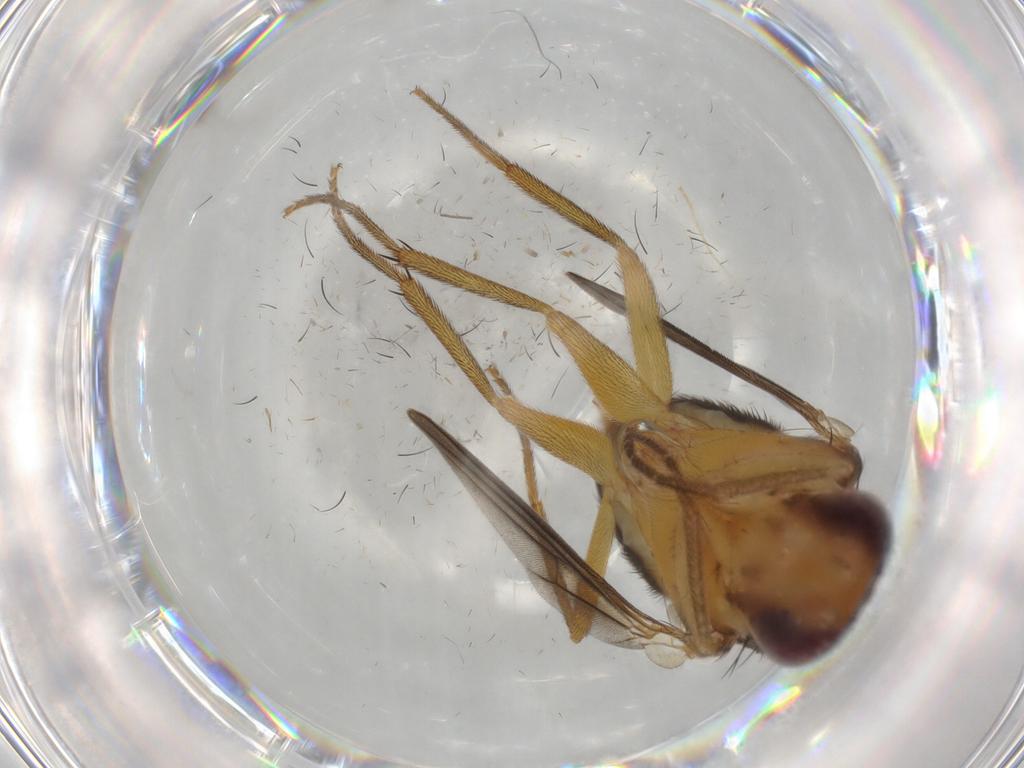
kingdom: Animalia
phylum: Arthropoda
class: Insecta
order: Diptera
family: Chironomidae
